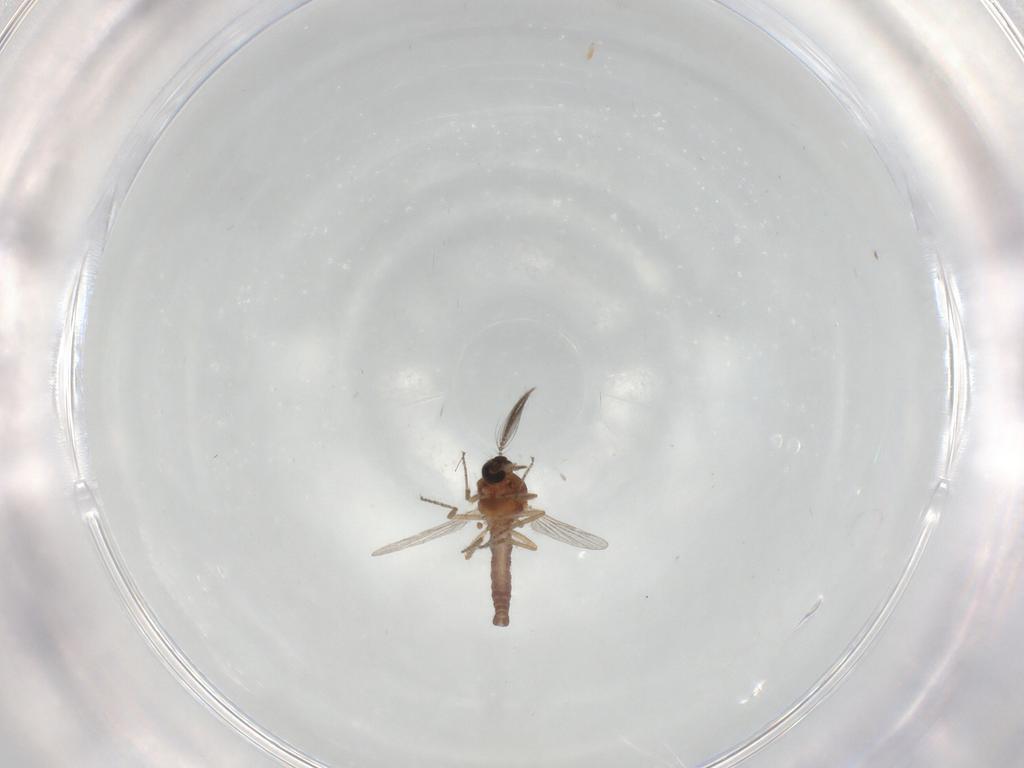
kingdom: Animalia
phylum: Arthropoda
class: Insecta
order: Diptera
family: Ceratopogonidae
